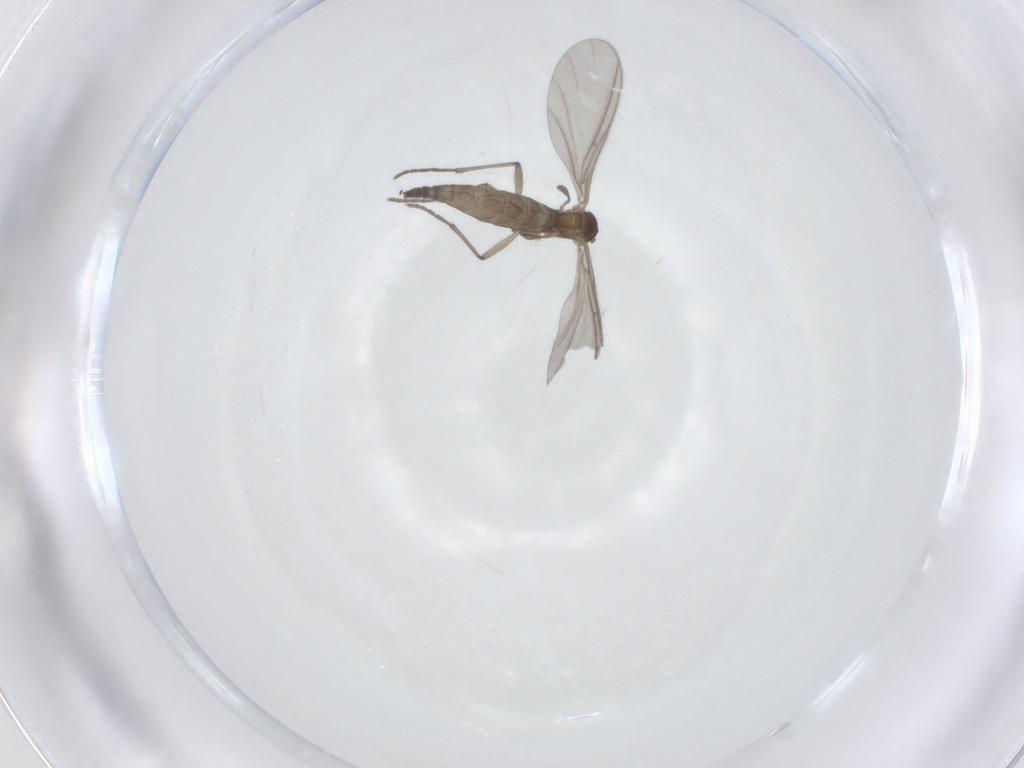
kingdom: Animalia
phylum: Arthropoda
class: Insecta
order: Diptera
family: Sciaridae
